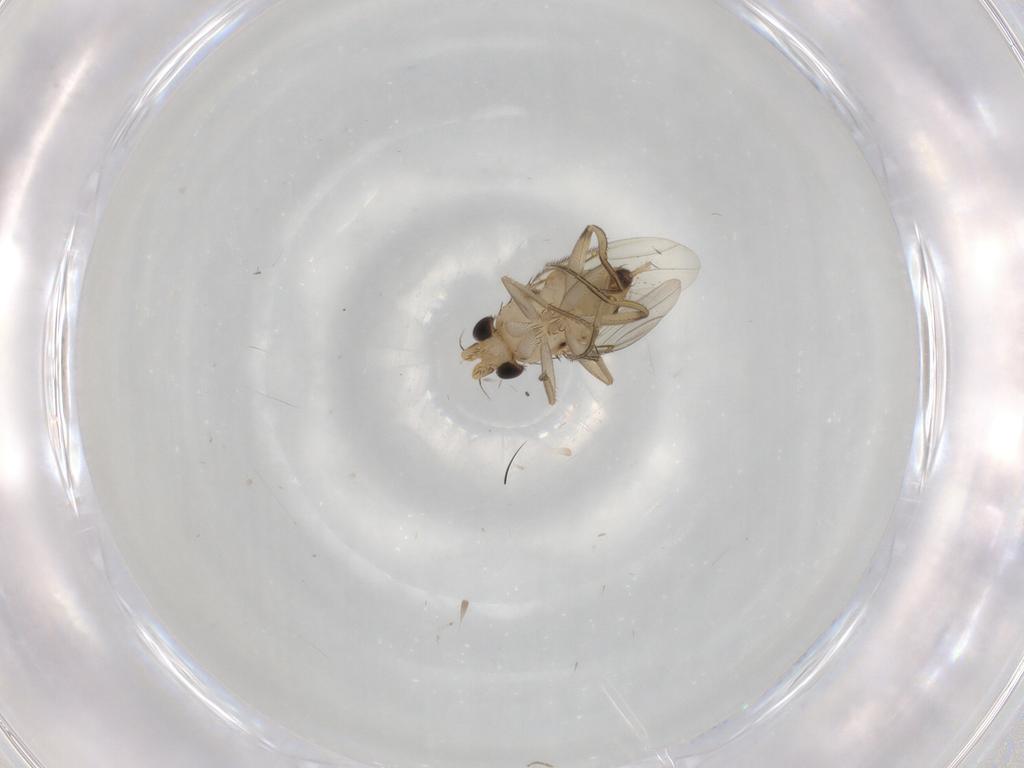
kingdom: Animalia
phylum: Arthropoda
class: Insecta
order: Diptera
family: Phoridae
